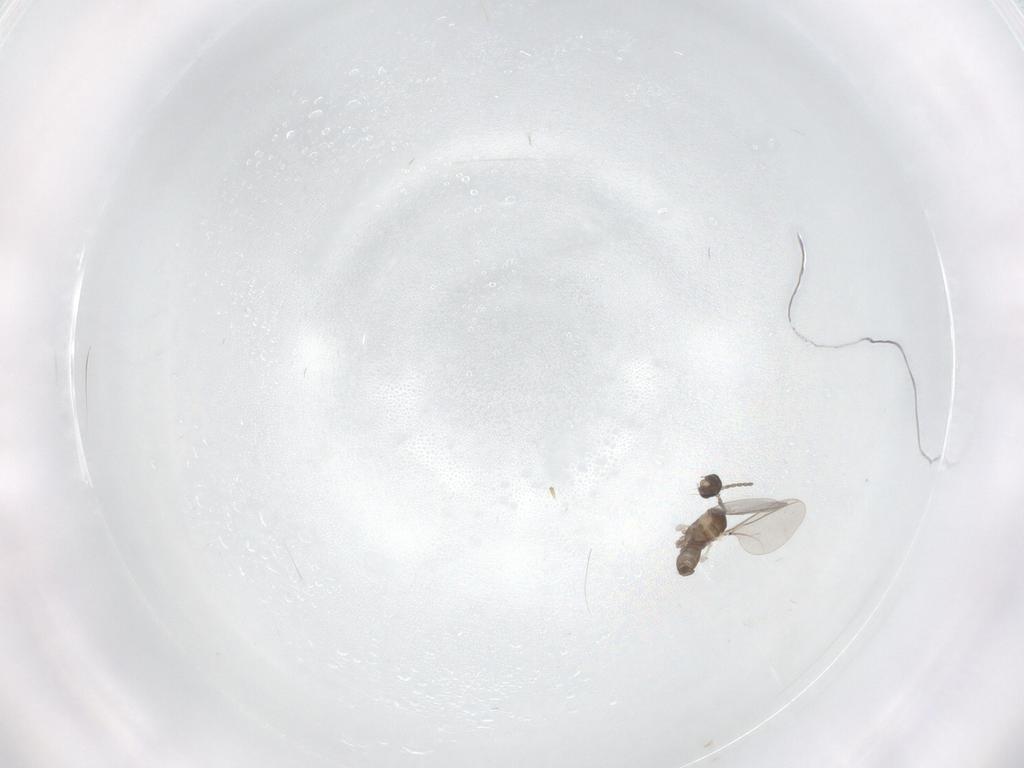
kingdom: Animalia
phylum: Arthropoda
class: Insecta
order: Diptera
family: Cecidomyiidae
